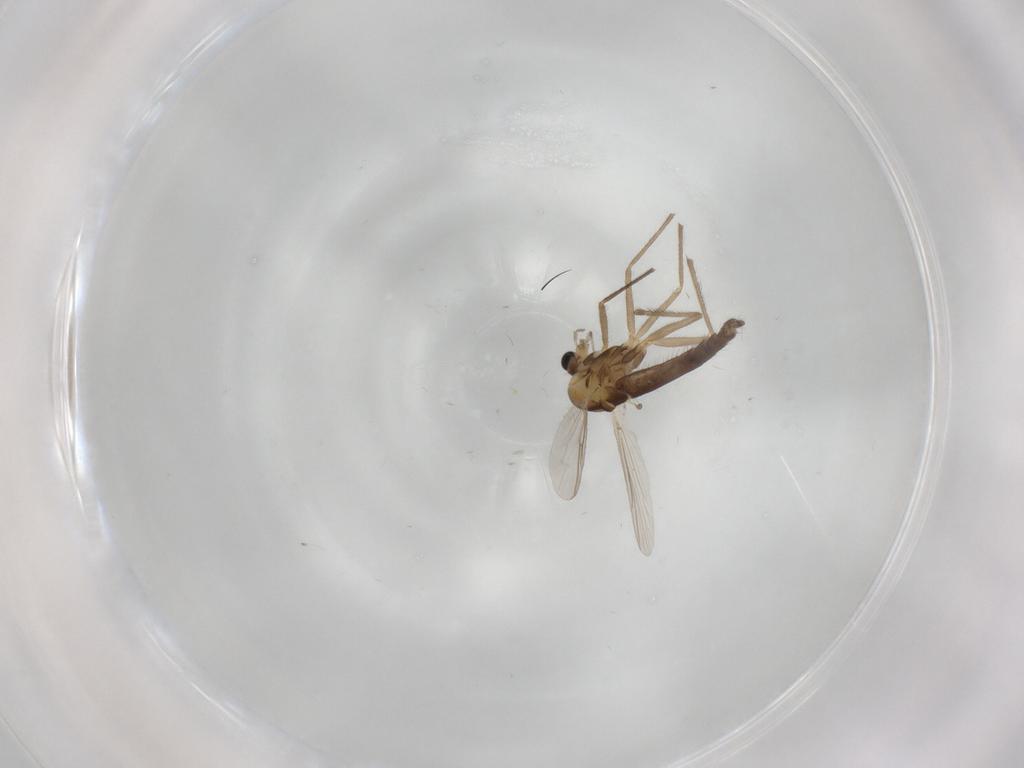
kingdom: Animalia
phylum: Arthropoda
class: Insecta
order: Diptera
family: Chironomidae
